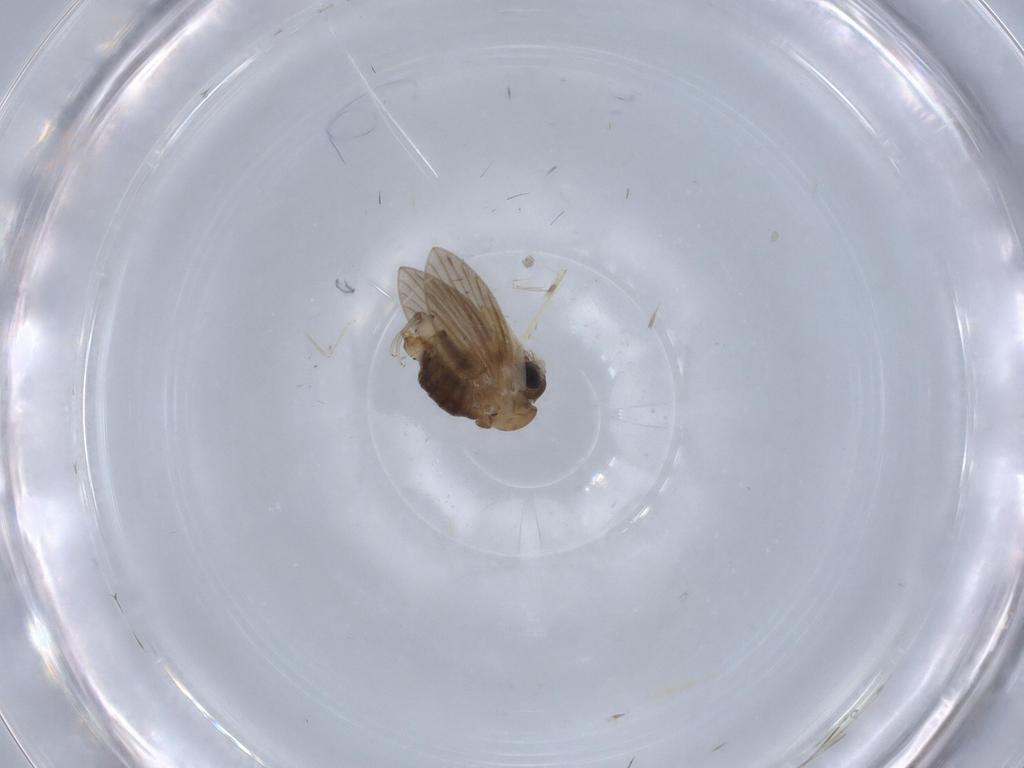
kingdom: Animalia
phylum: Arthropoda
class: Insecta
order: Diptera
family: Psychodidae
